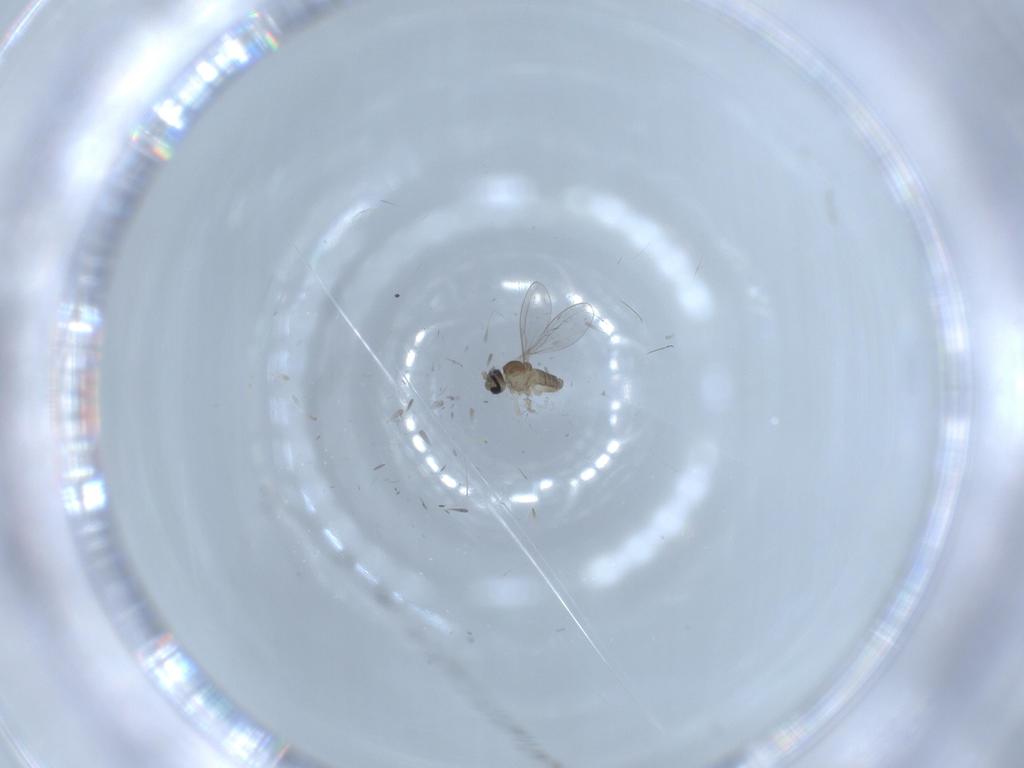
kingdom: Animalia
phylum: Arthropoda
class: Insecta
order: Diptera
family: Cecidomyiidae
